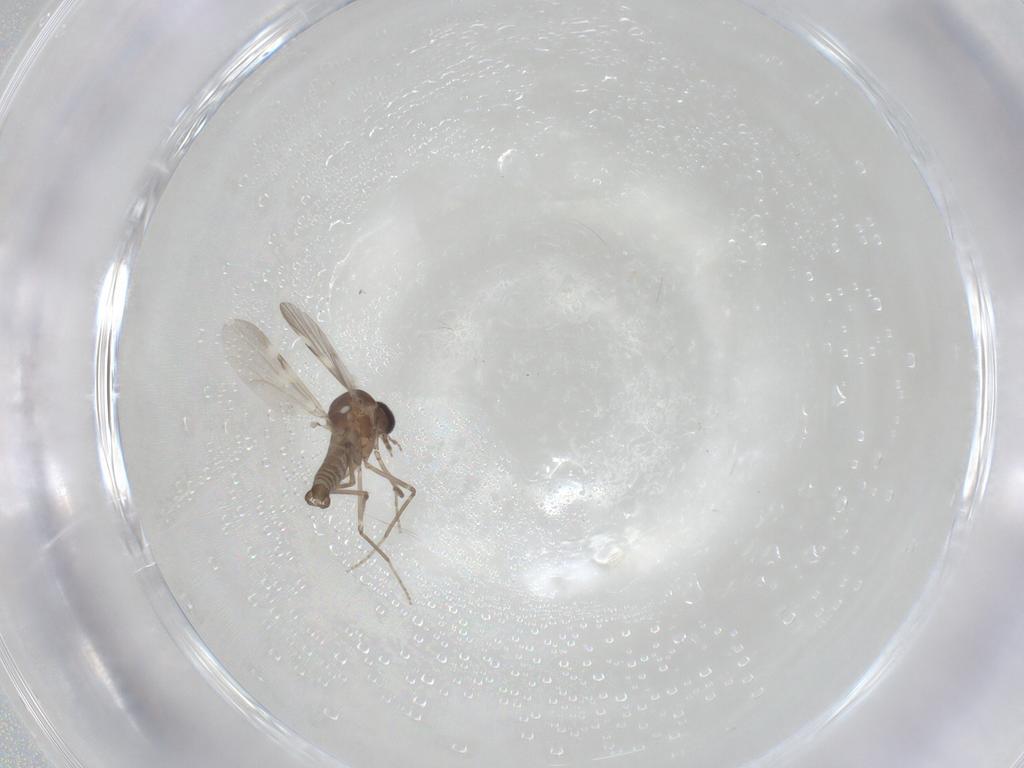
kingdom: Animalia
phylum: Arthropoda
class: Insecta
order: Diptera
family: Ceratopogonidae
